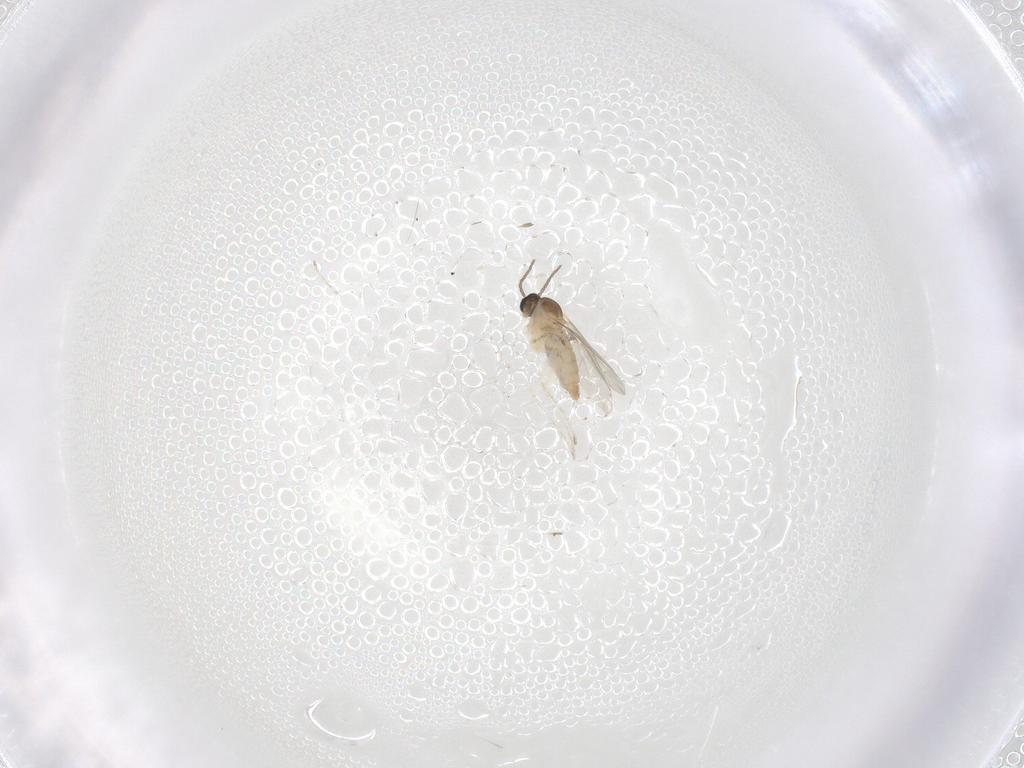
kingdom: Animalia
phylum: Arthropoda
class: Insecta
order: Diptera
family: Cecidomyiidae
